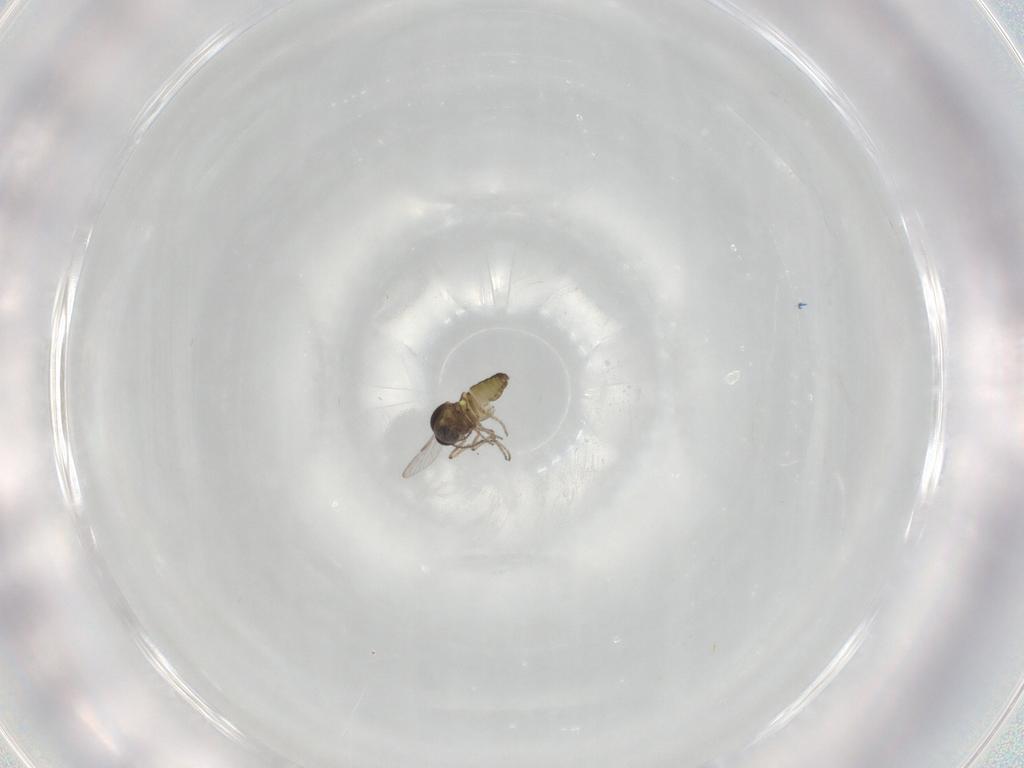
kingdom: Animalia
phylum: Arthropoda
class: Insecta
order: Diptera
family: Ceratopogonidae
